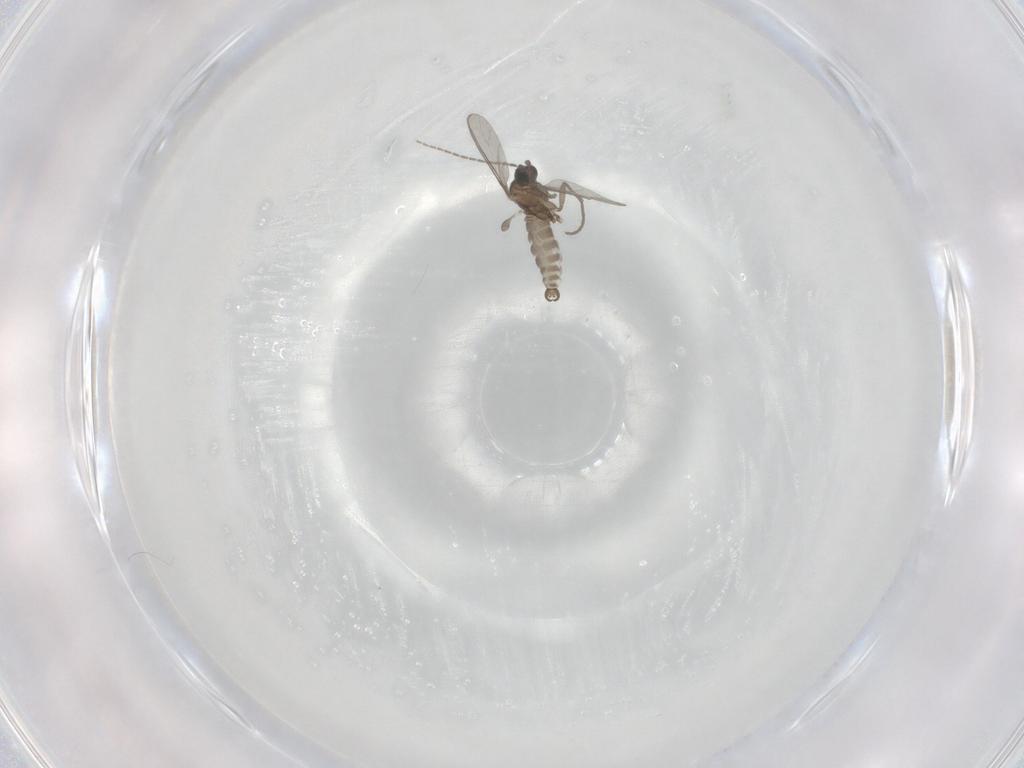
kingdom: Animalia
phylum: Arthropoda
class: Insecta
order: Diptera
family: Sciaridae
